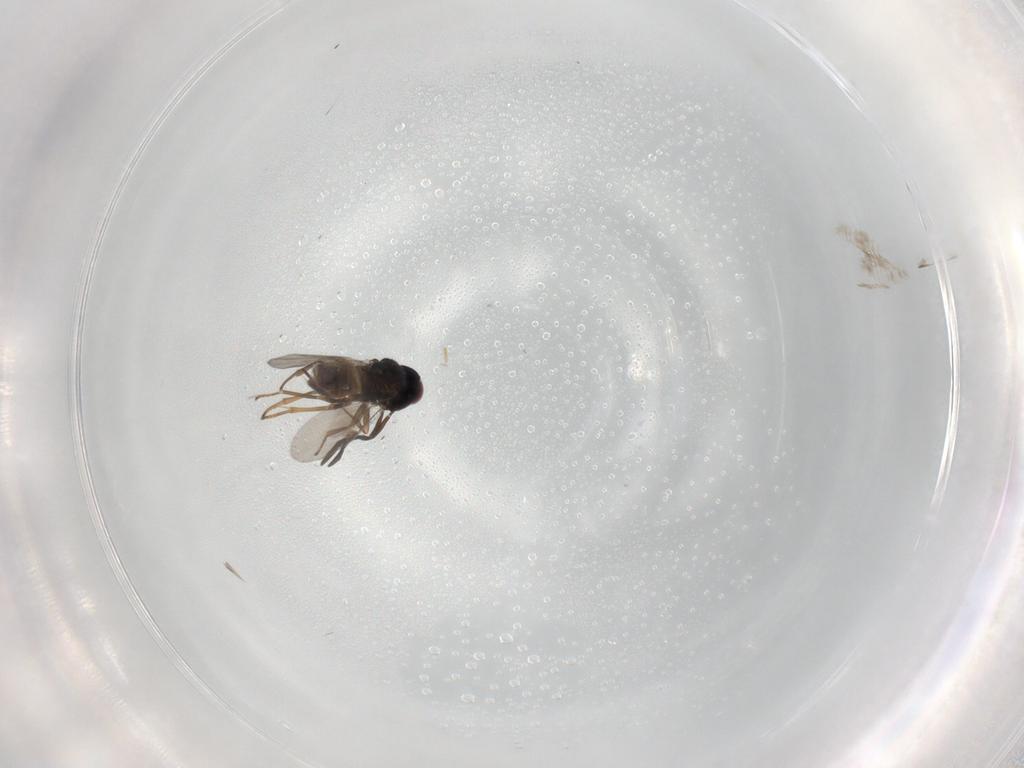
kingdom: Animalia
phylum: Arthropoda
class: Insecta
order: Hymenoptera
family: Encyrtidae
